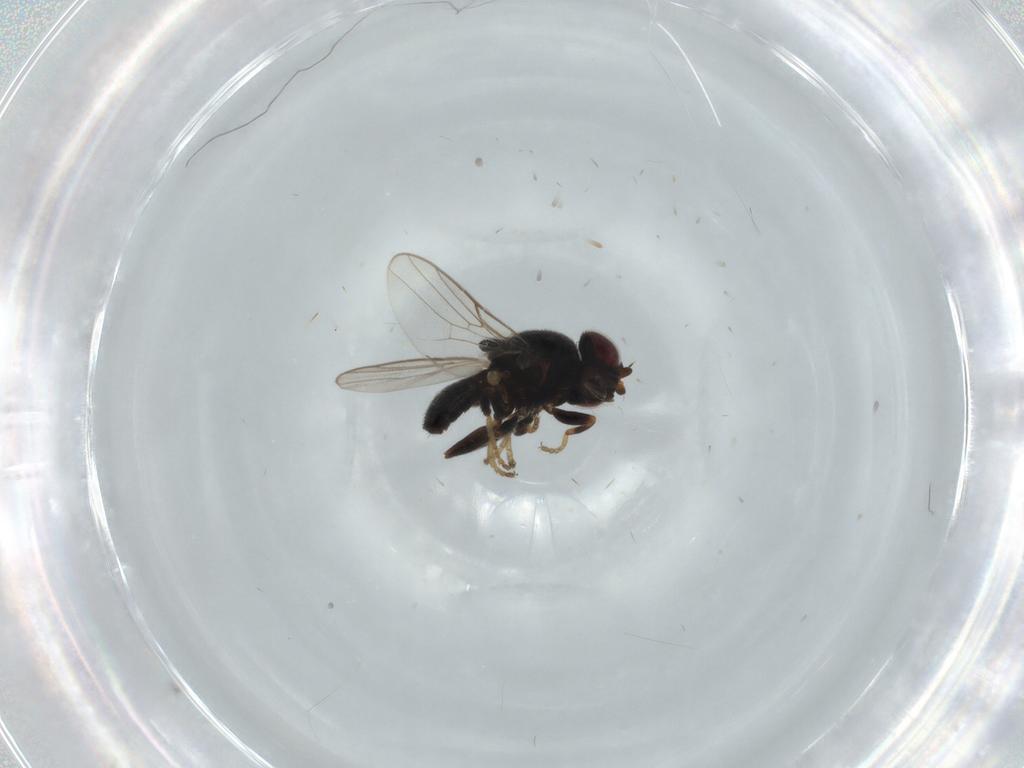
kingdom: Animalia
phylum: Arthropoda
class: Insecta
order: Diptera
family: Chloropidae
